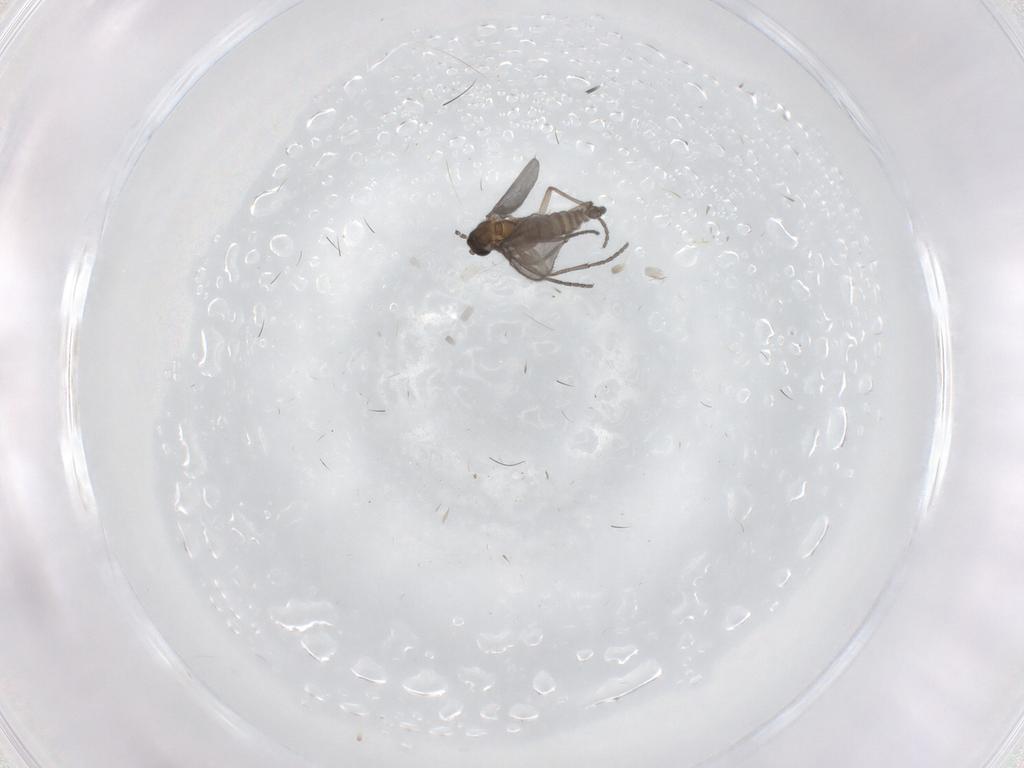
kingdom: Animalia
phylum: Arthropoda
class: Insecta
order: Diptera
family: Sciaridae
